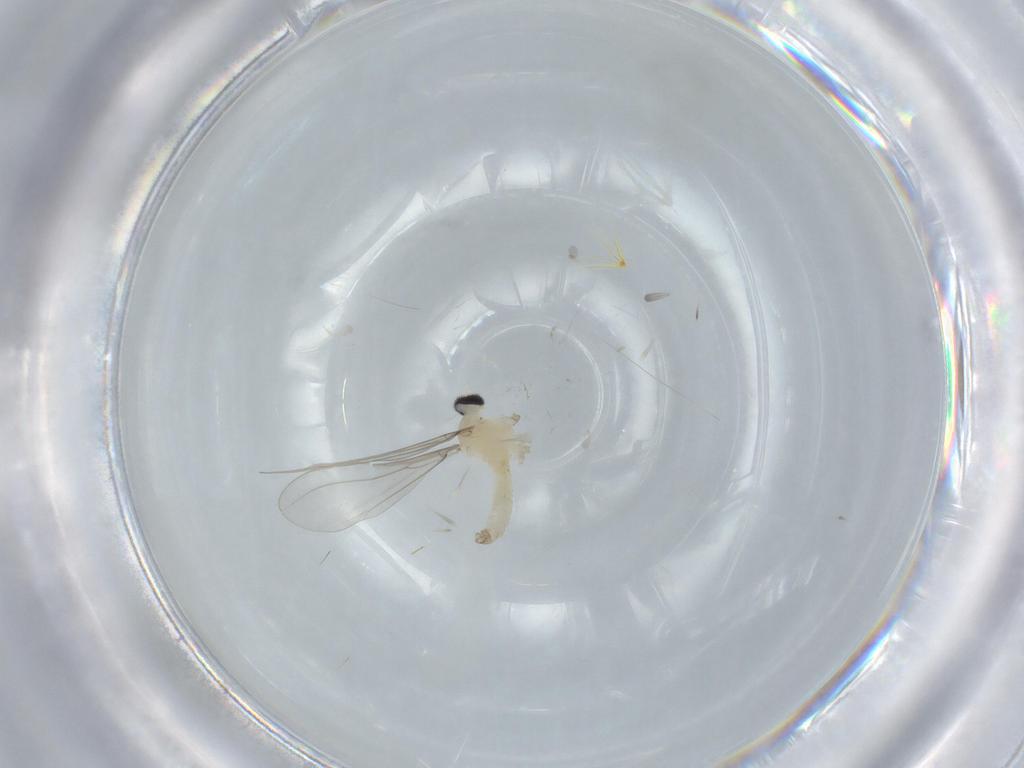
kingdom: Animalia
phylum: Arthropoda
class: Insecta
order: Diptera
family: Cecidomyiidae
